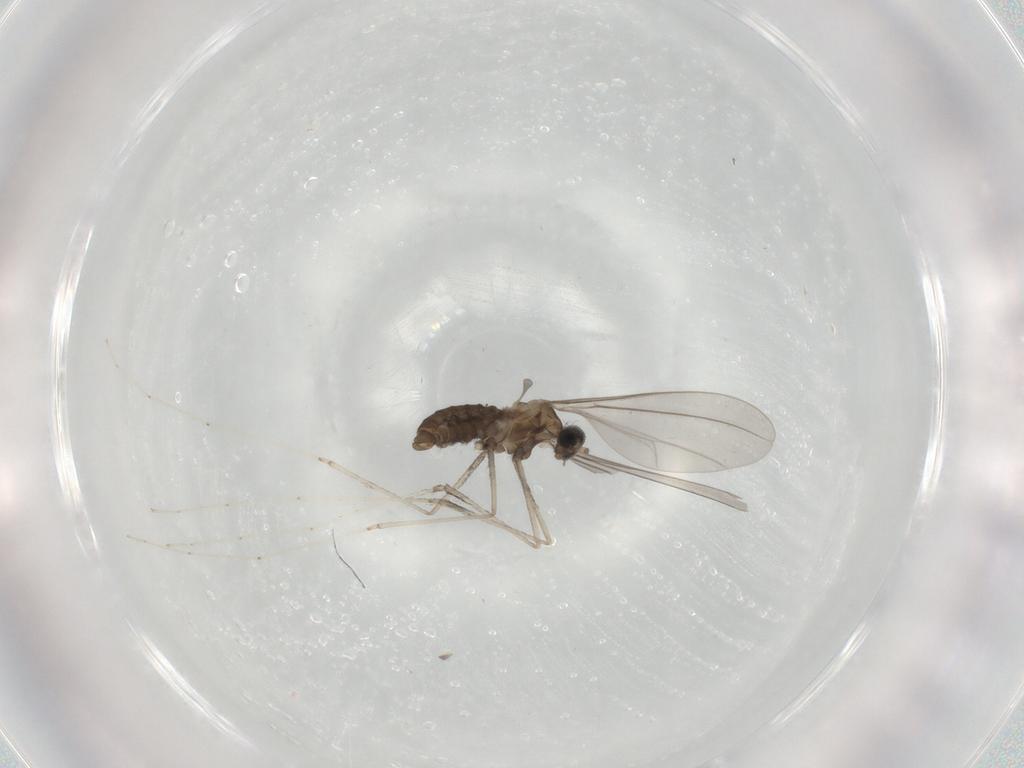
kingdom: Animalia
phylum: Arthropoda
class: Insecta
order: Diptera
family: Cecidomyiidae
